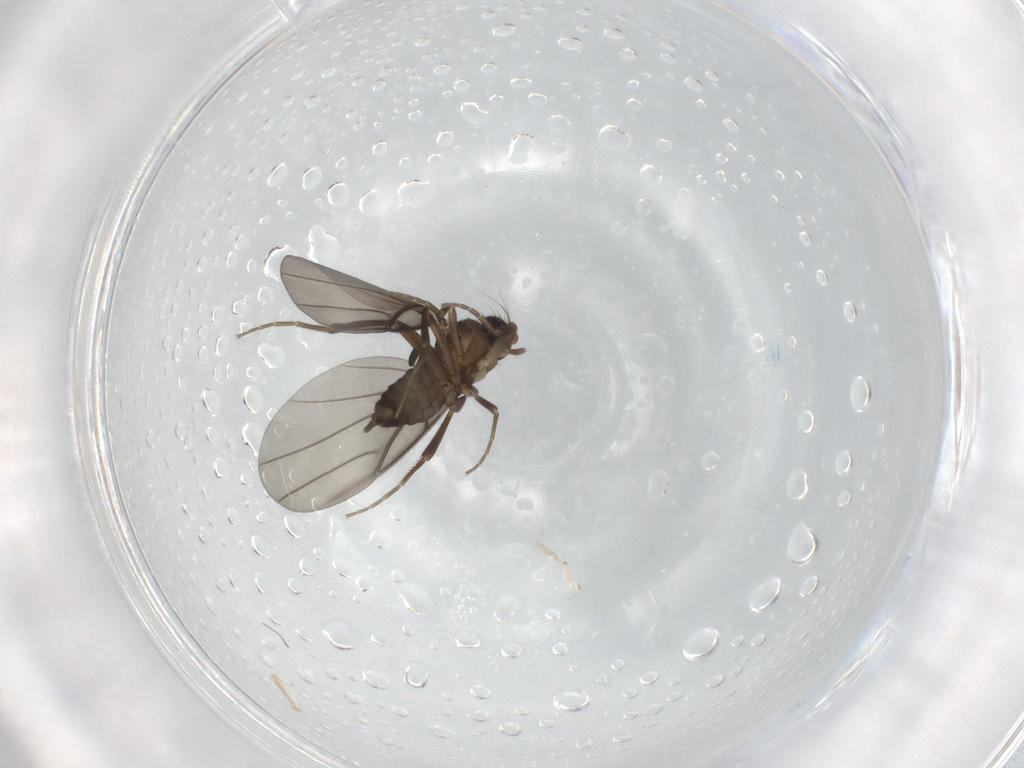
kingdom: Animalia
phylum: Arthropoda
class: Insecta
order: Diptera
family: Phoridae
